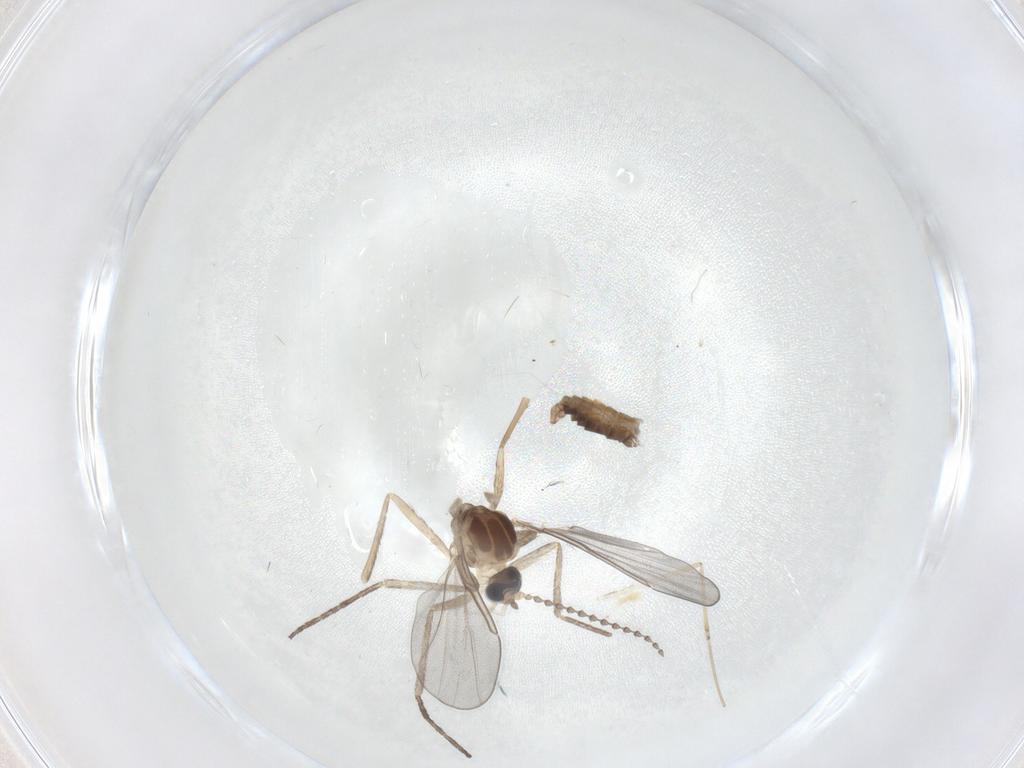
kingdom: Animalia
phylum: Arthropoda
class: Insecta
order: Diptera
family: Cecidomyiidae
